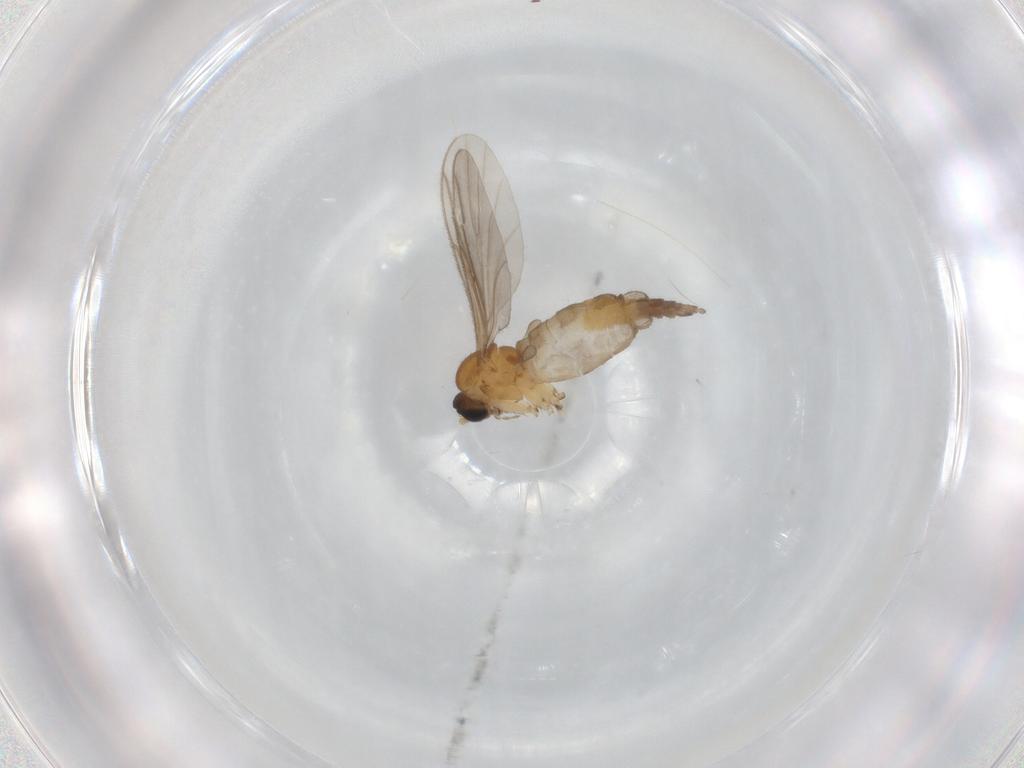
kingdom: Animalia
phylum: Arthropoda
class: Insecta
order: Diptera
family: Sciaridae
